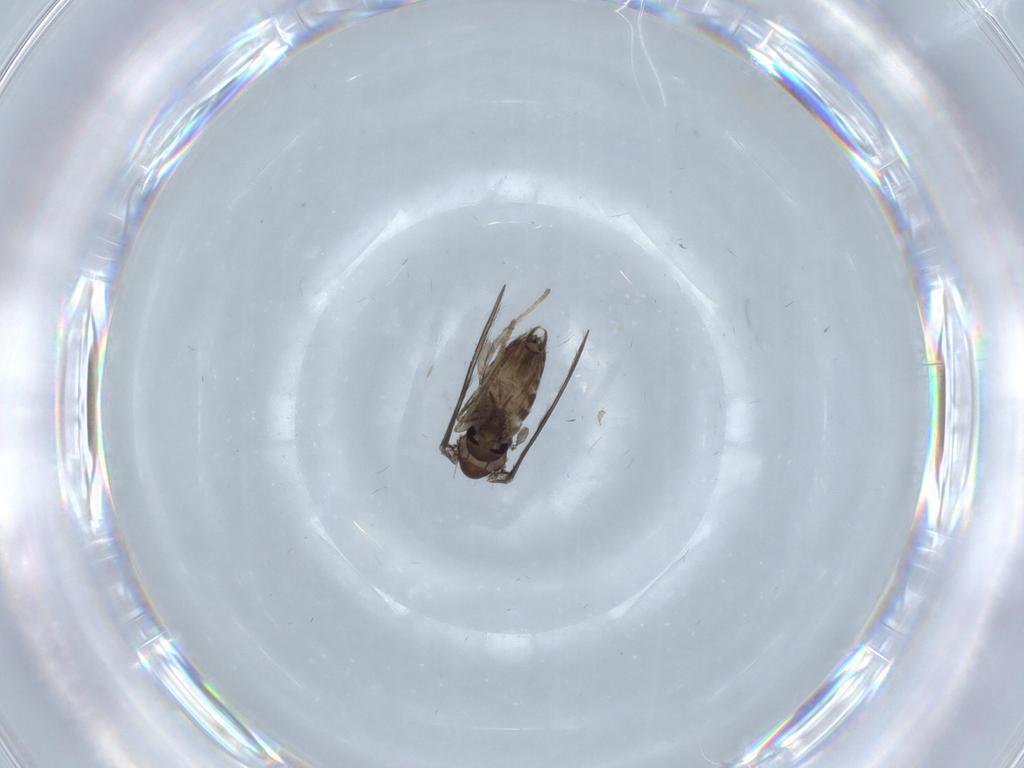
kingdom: Animalia
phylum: Arthropoda
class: Insecta
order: Diptera
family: Psychodidae
